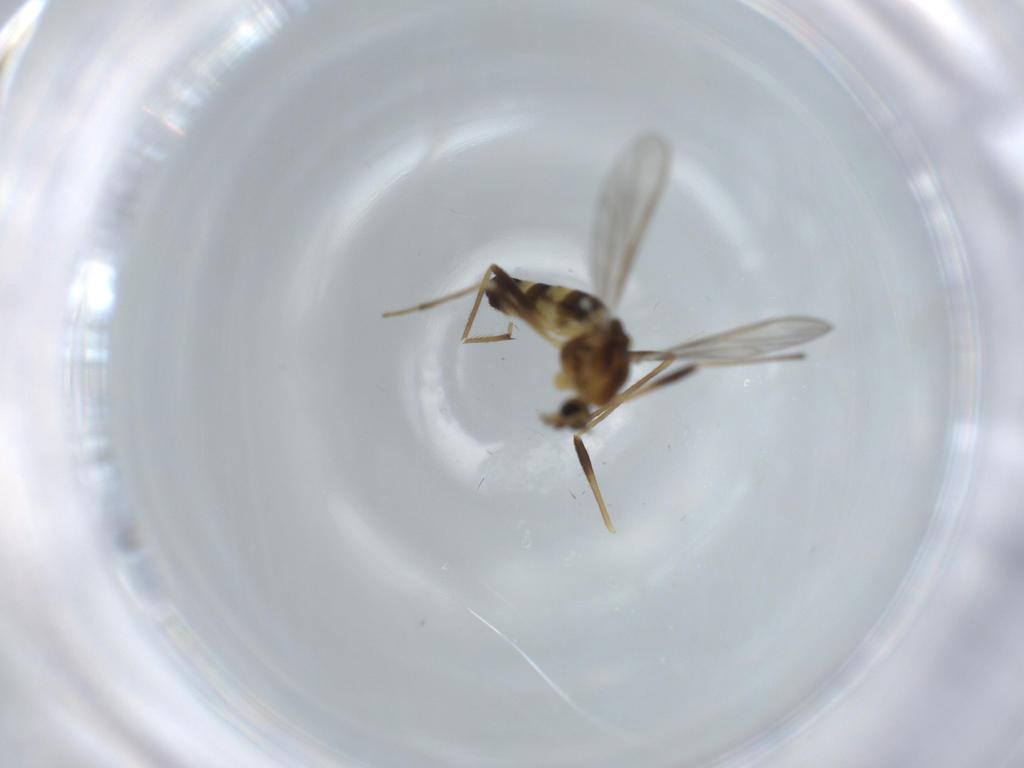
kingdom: Animalia
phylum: Arthropoda
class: Insecta
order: Diptera
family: Chironomidae
